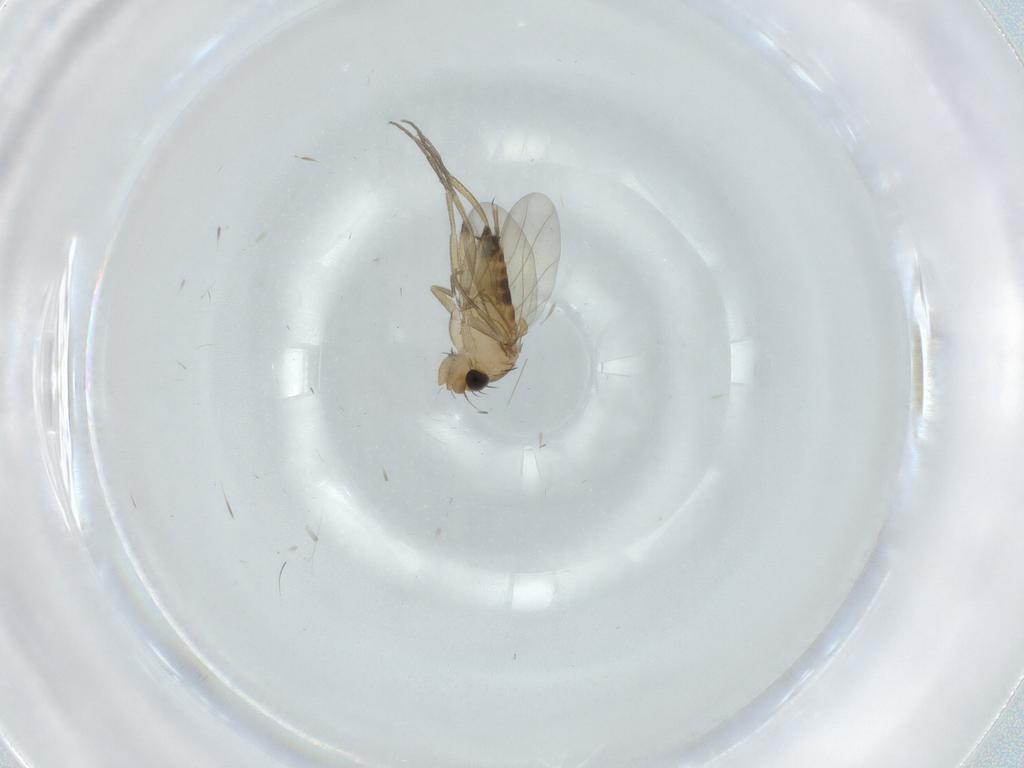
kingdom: Animalia
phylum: Arthropoda
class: Insecta
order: Diptera
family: Phoridae
